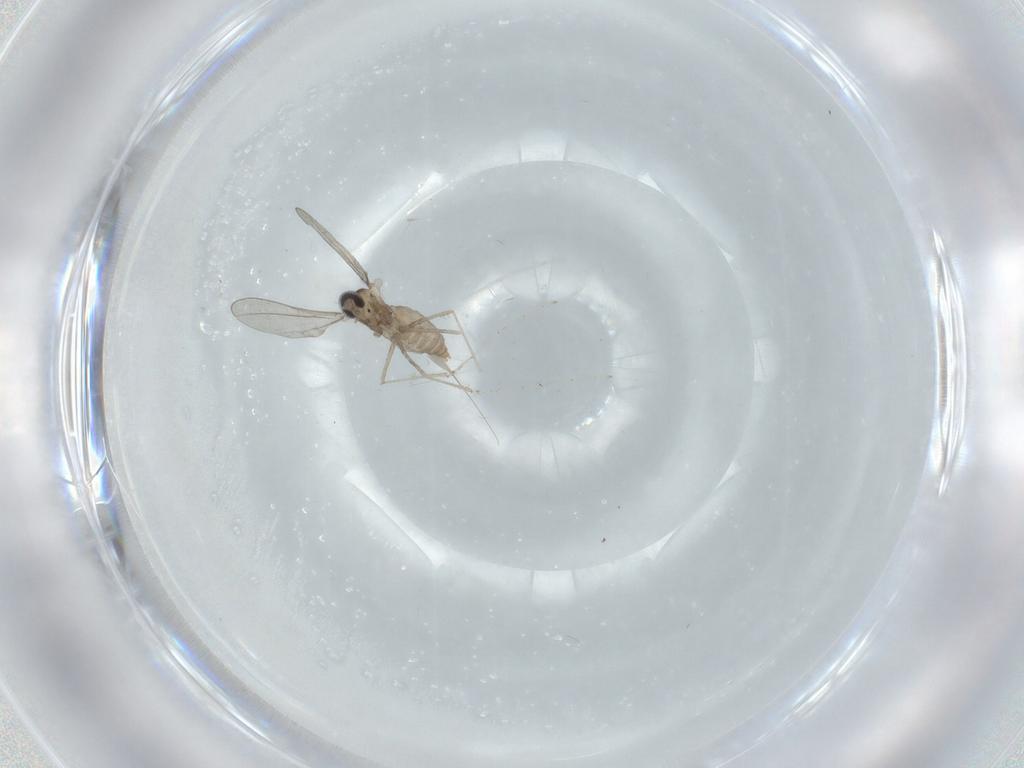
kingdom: Animalia
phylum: Arthropoda
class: Insecta
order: Diptera
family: Cecidomyiidae
